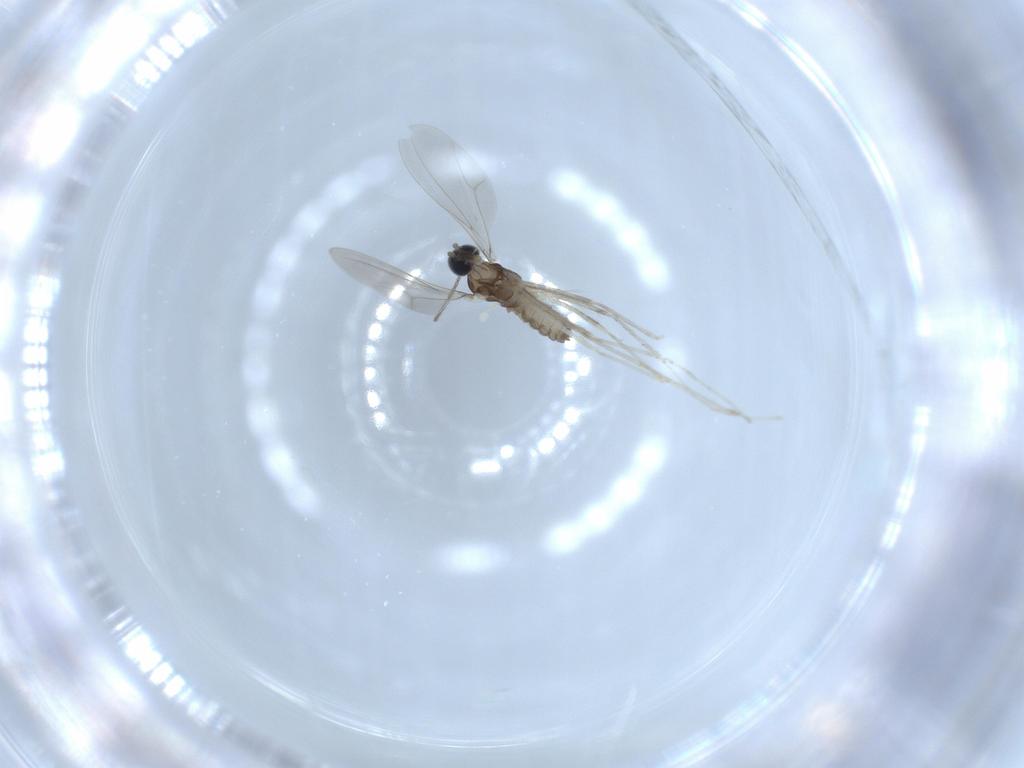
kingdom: Animalia
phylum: Arthropoda
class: Insecta
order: Diptera
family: Cecidomyiidae
